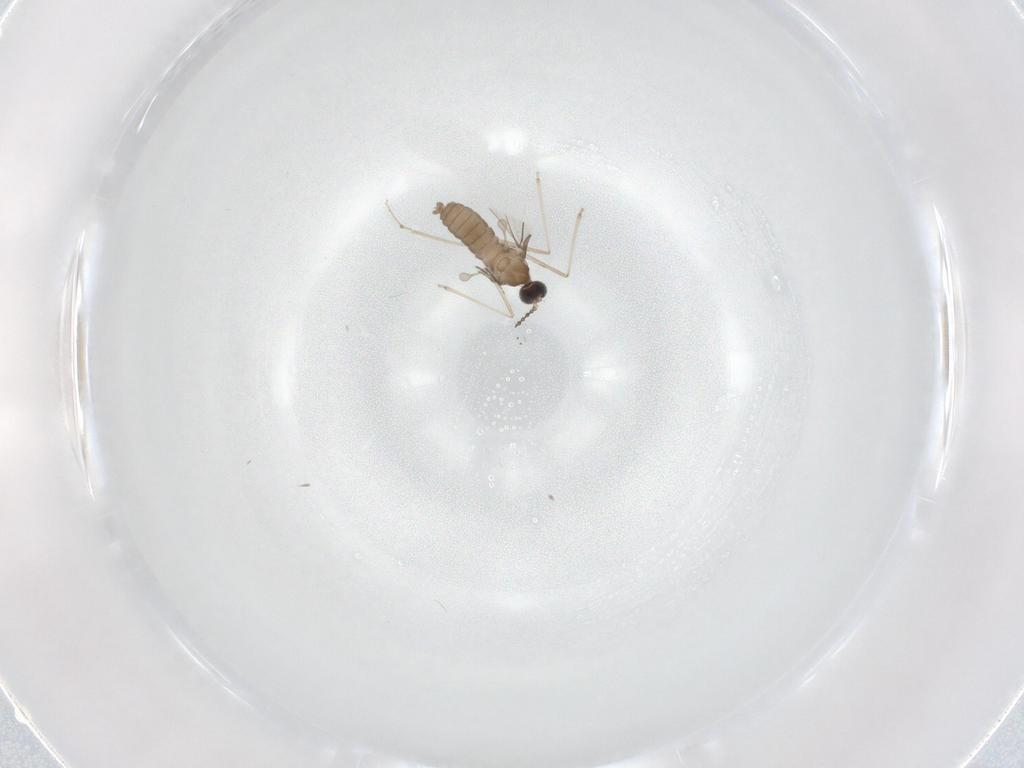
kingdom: Animalia
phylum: Arthropoda
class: Insecta
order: Diptera
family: Cecidomyiidae
